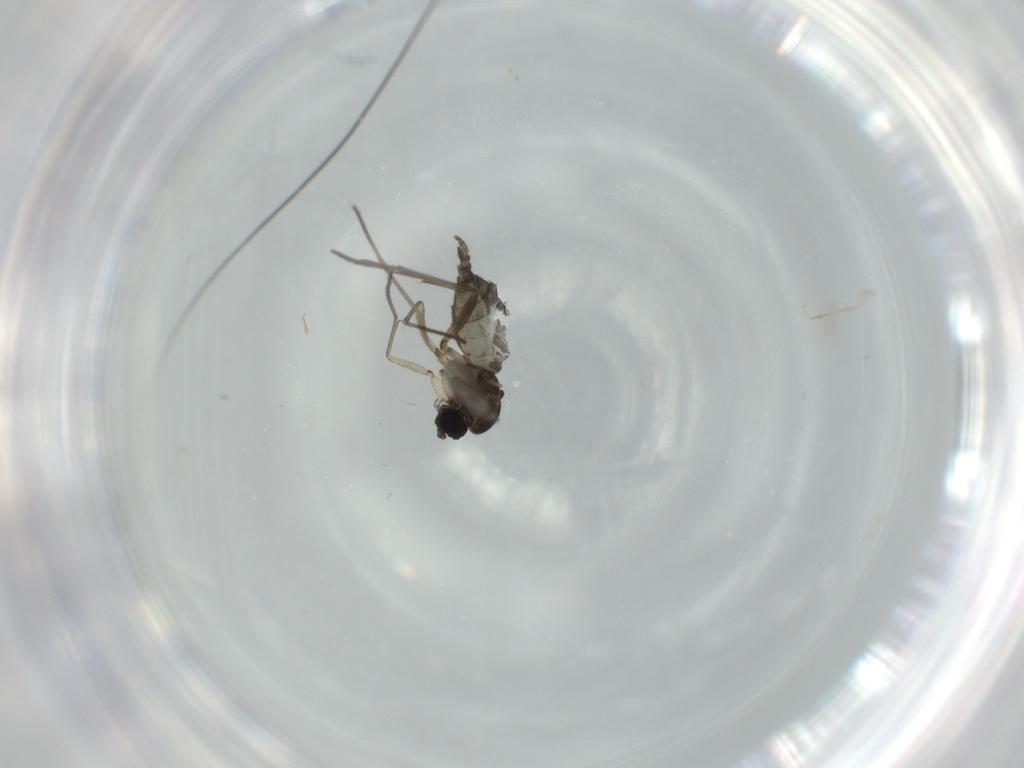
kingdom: Animalia
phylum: Arthropoda
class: Insecta
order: Diptera
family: Sciaridae
